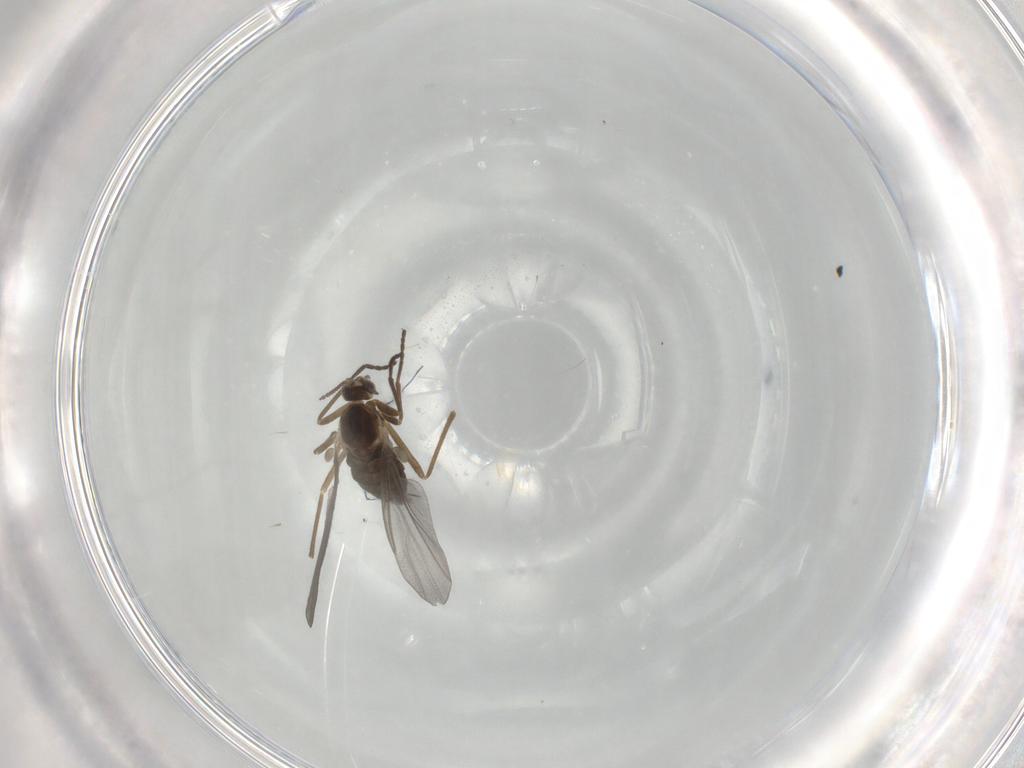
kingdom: Animalia
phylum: Arthropoda
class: Insecta
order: Diptera
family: Cecidomyiidae
